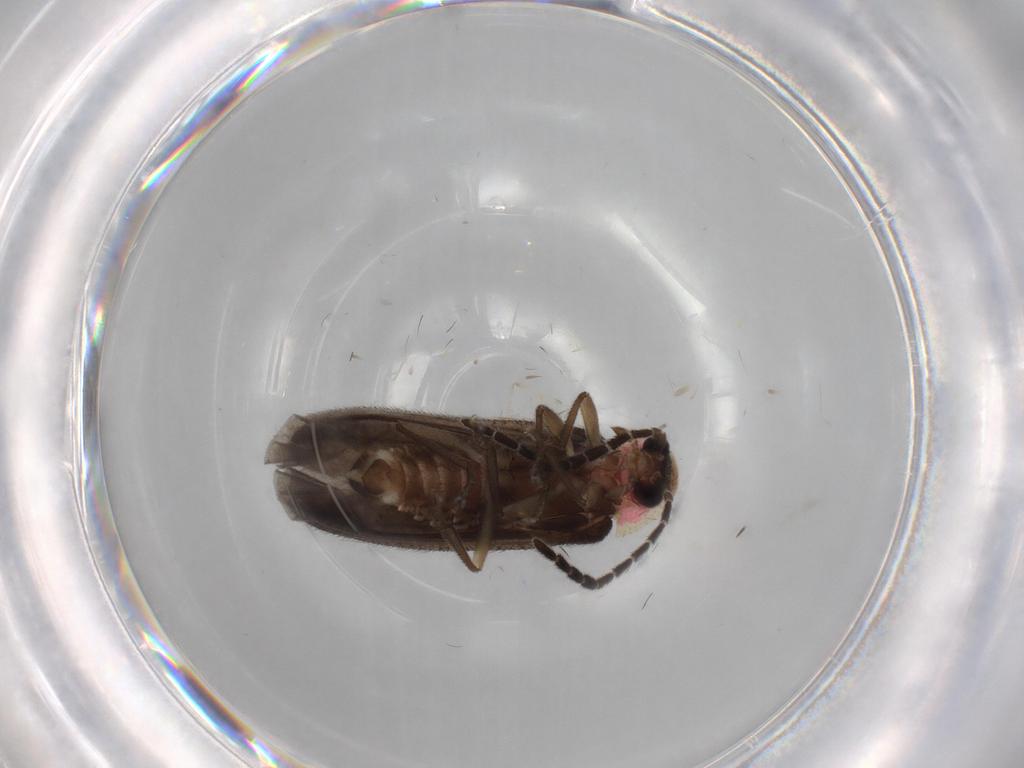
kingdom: Animalia
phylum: Arthropoda
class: Insecta
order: Coleoptera
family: Lampyridae
